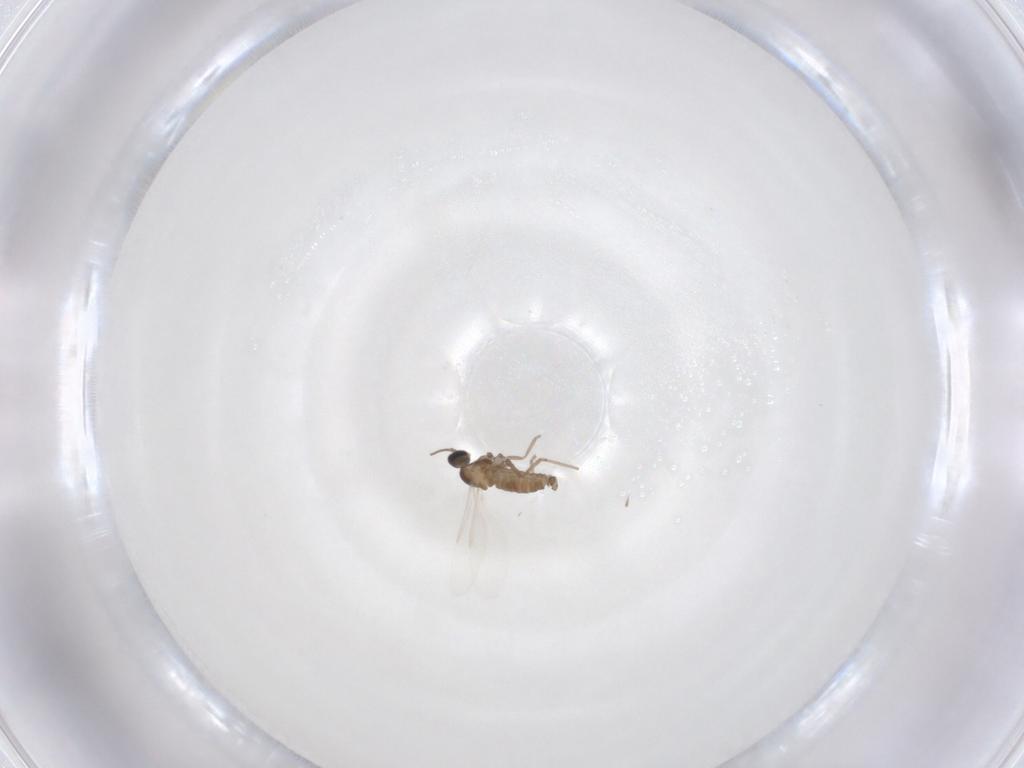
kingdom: Animalia
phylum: Arthropoda
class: Insecta
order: Diptera
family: Cecidomyiidae
